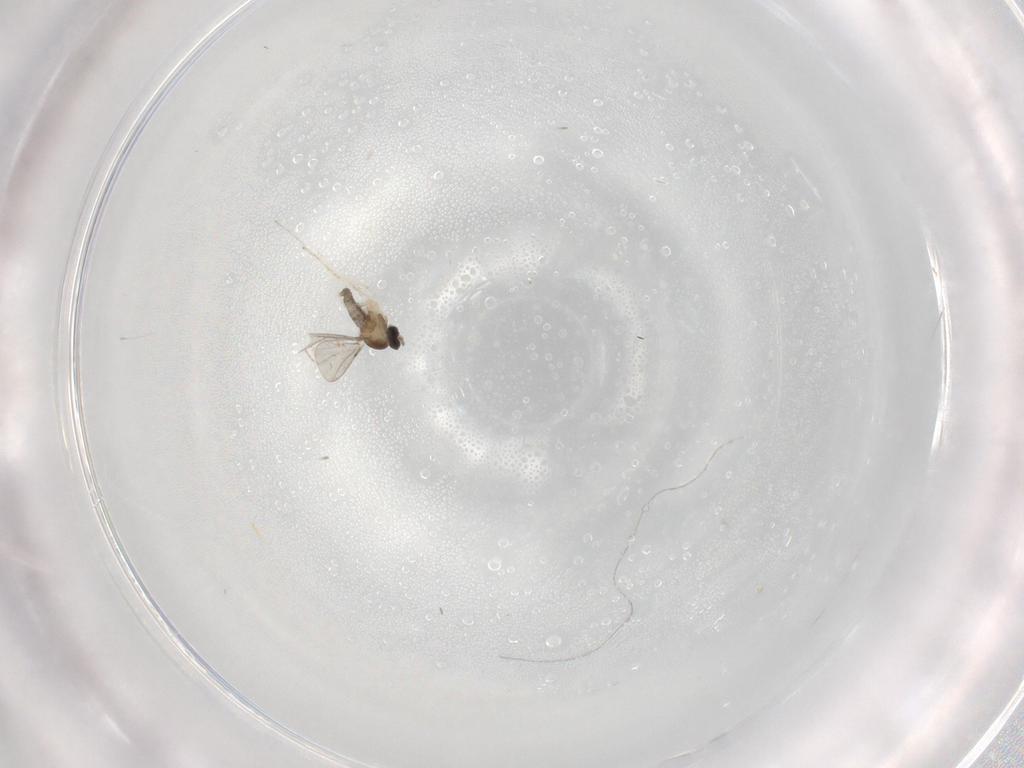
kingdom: Animalia
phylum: Arthropoda
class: Insecta
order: Diptera
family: Cecidomyiidae
